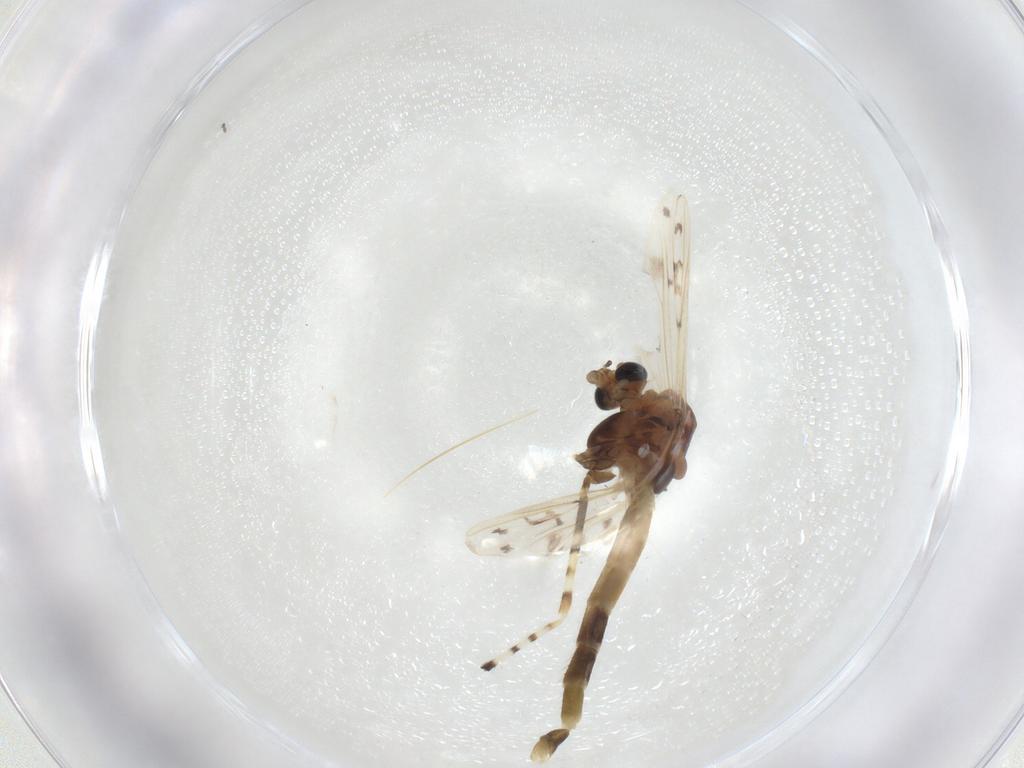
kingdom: Animalia
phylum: Arthropoda
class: Insecta
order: Diptera
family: Chironomidae
